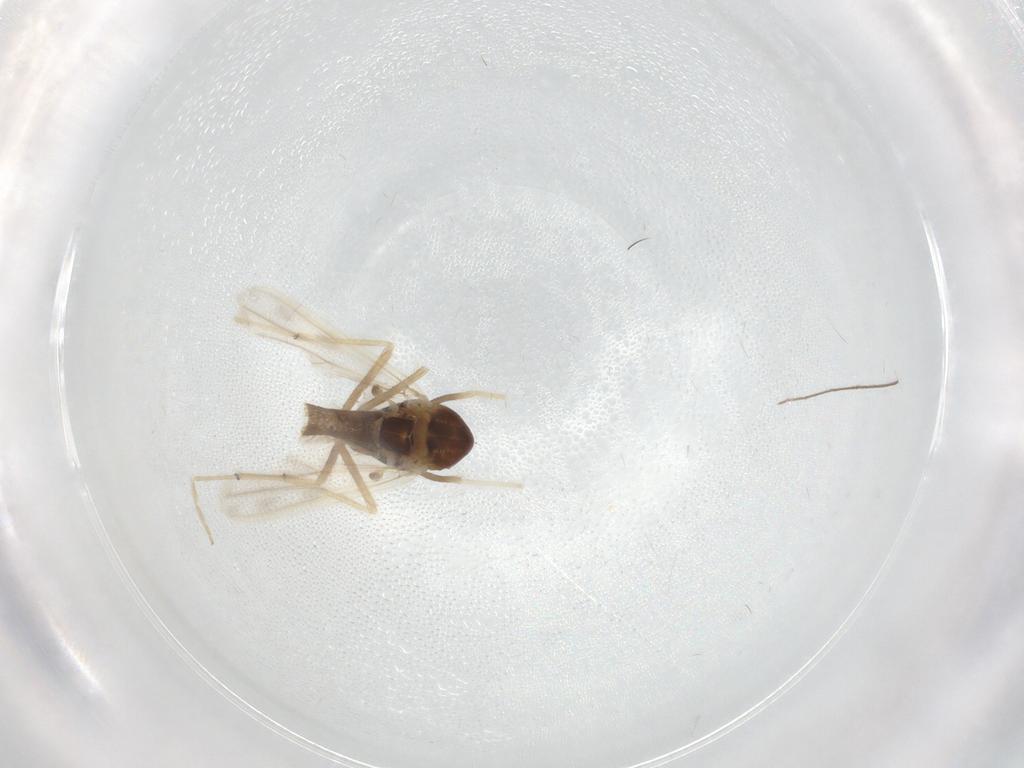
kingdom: Animalia
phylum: Arthropoda
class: Insecta
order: Diptera
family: Chironomidae
